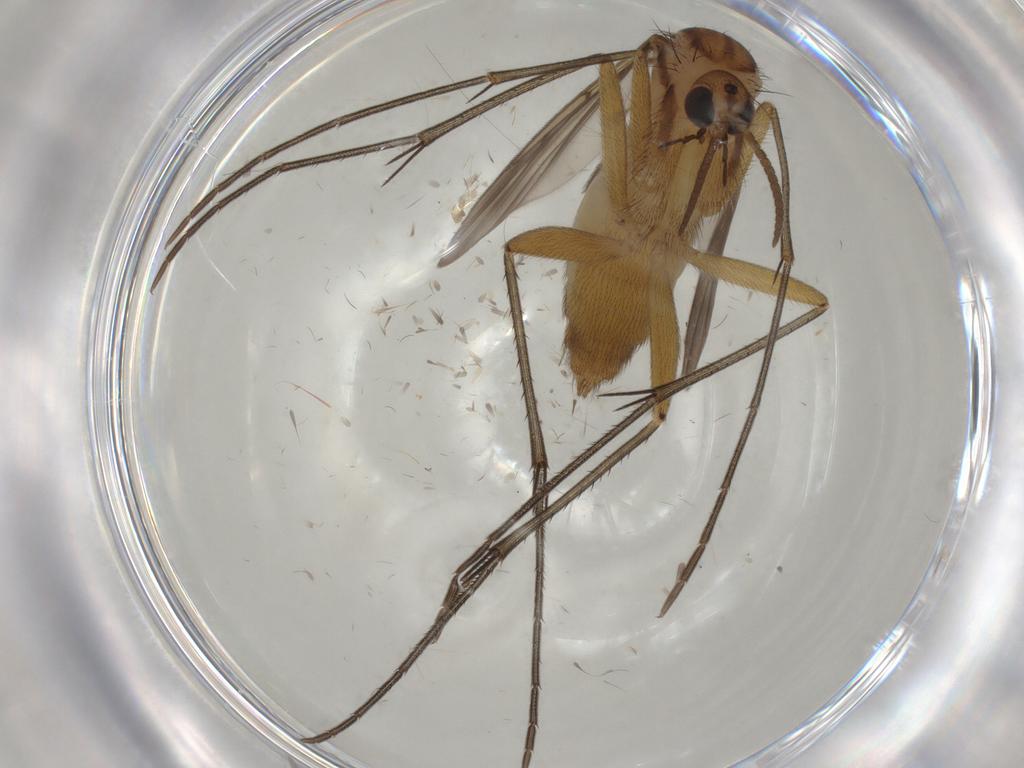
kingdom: Animalia
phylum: Arthropoda
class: Insecta
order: Diptera
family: Mycetophilidae
